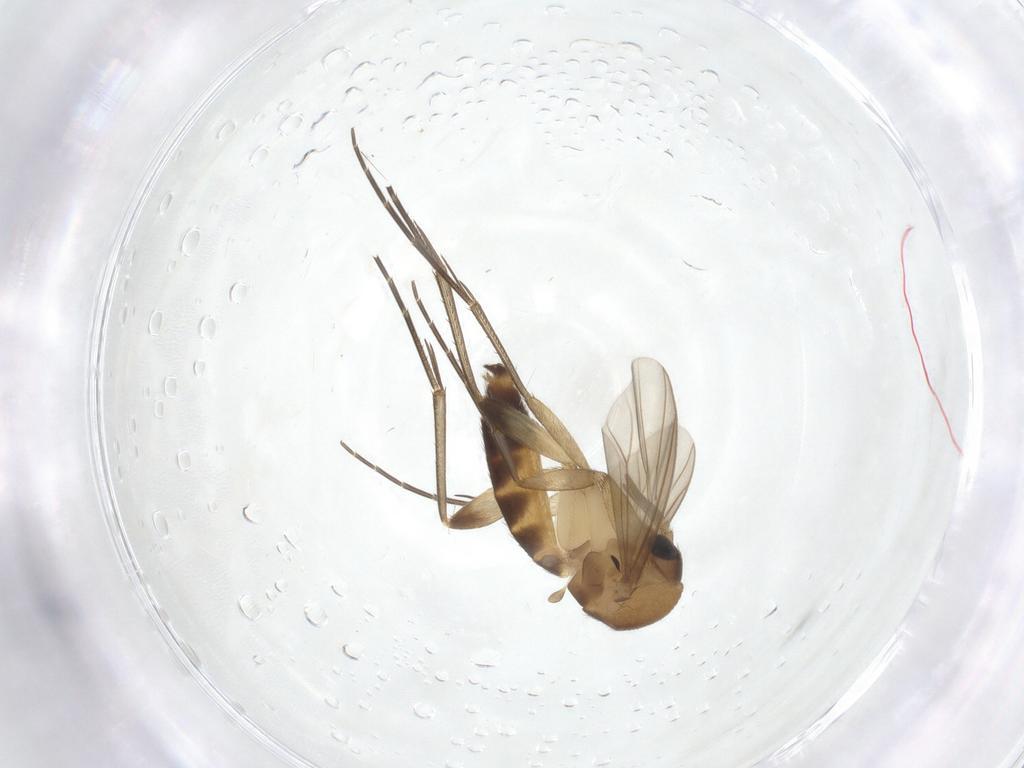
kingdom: Animalia
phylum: Arthropoda
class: Insecta
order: Diptera
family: Mycetophilidae
